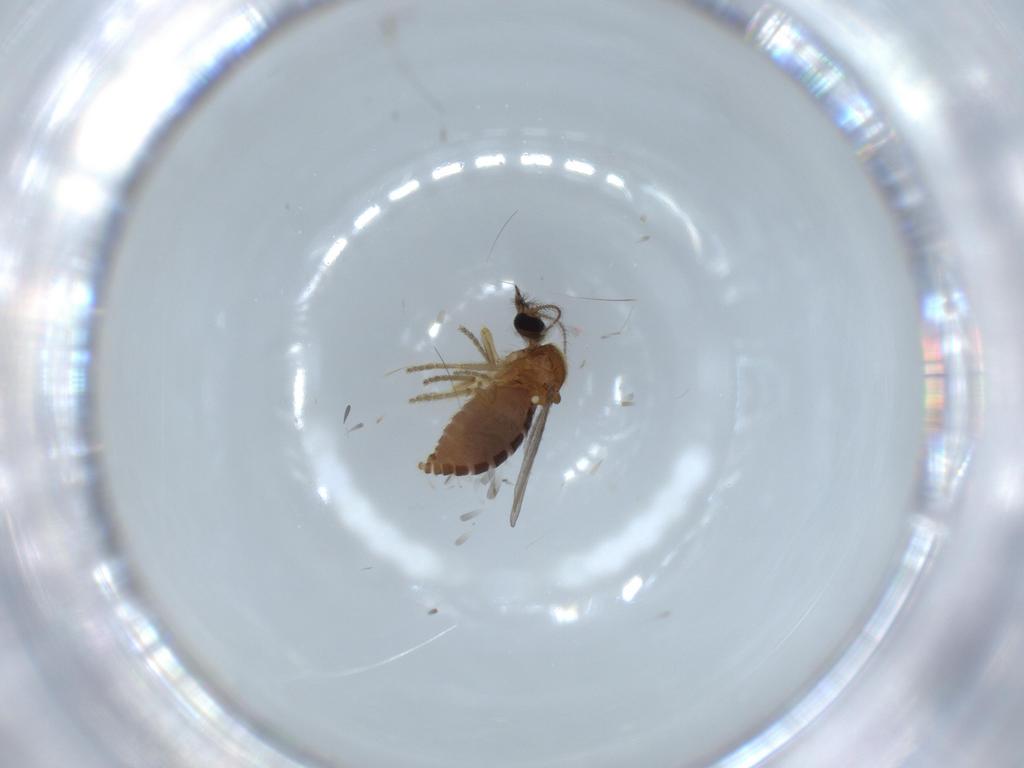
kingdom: Animalia
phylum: Arthropoda
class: Insecta
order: Diptera
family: Ceratopogonidae
